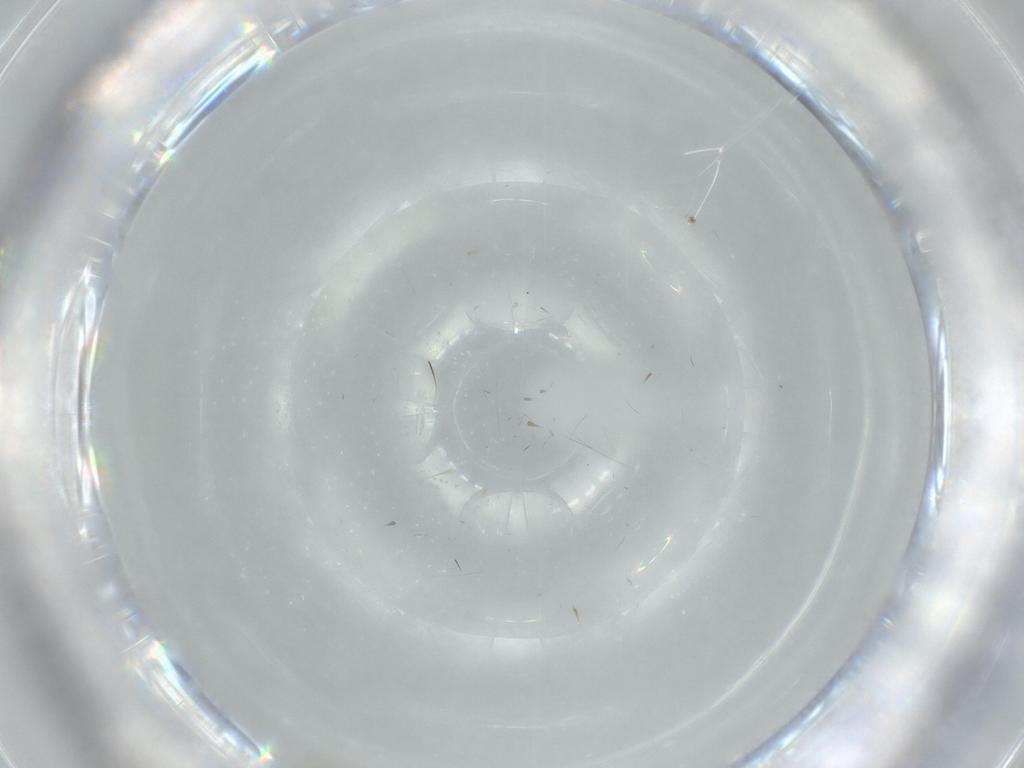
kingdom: Animalia
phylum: Arthropoda
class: Insecta
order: Hymenoptera
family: Trichogrammatidae
